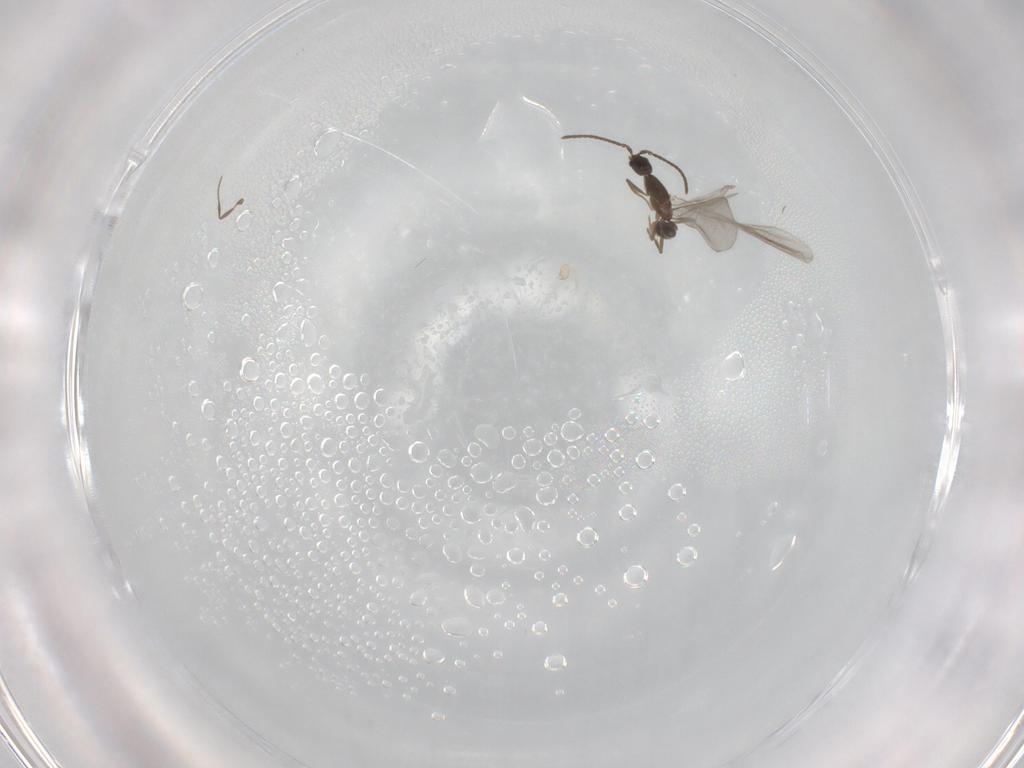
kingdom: Animalia
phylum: Arthropoda
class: Insecta
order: Hymenoptera
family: Formicidae
